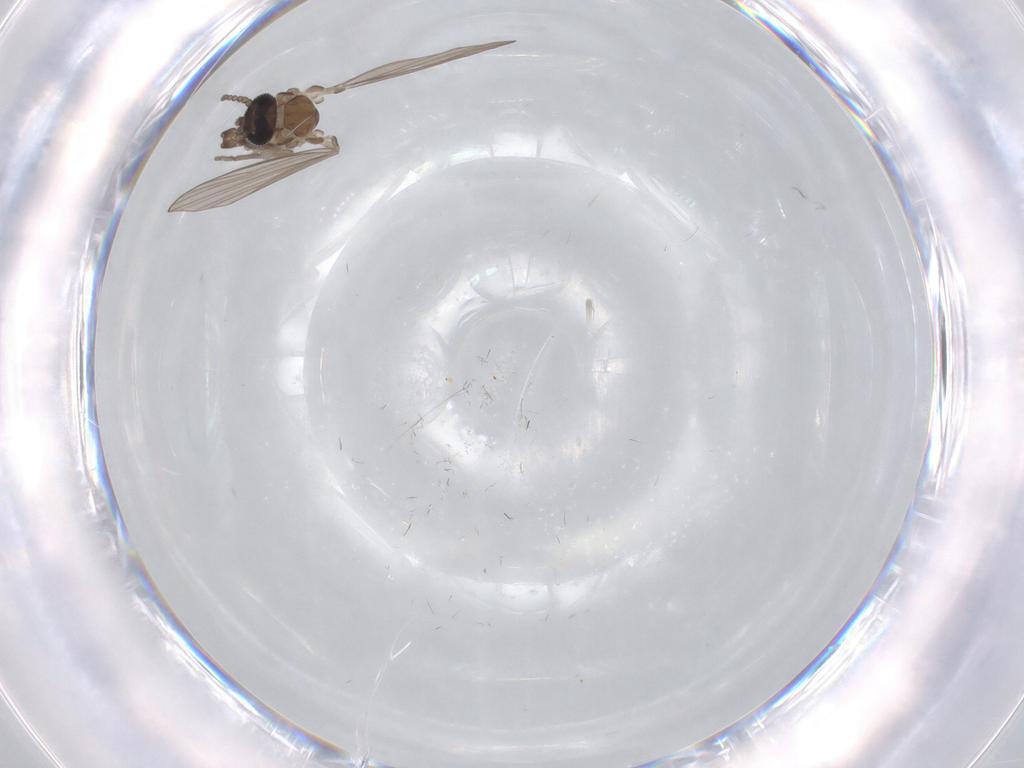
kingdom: Animalia
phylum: Arthropoda
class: Insecta
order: Diptera
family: Limoniidae
